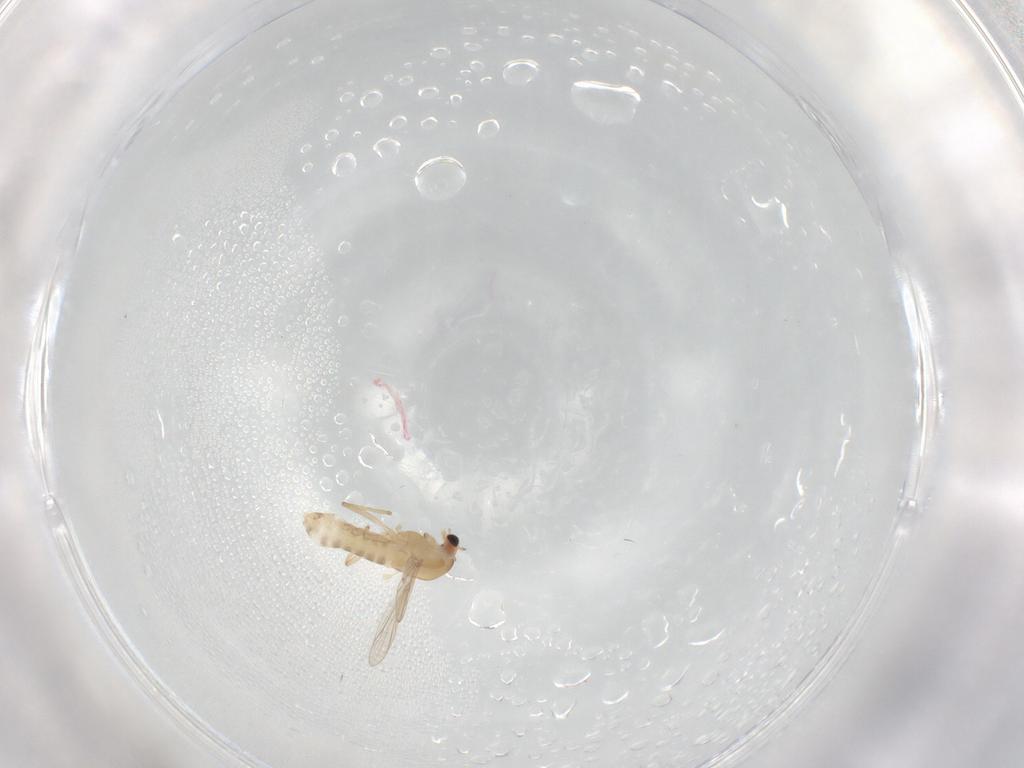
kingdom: Animalia
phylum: Arthropoda
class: Insecta
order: Diptera
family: Chironomidae
